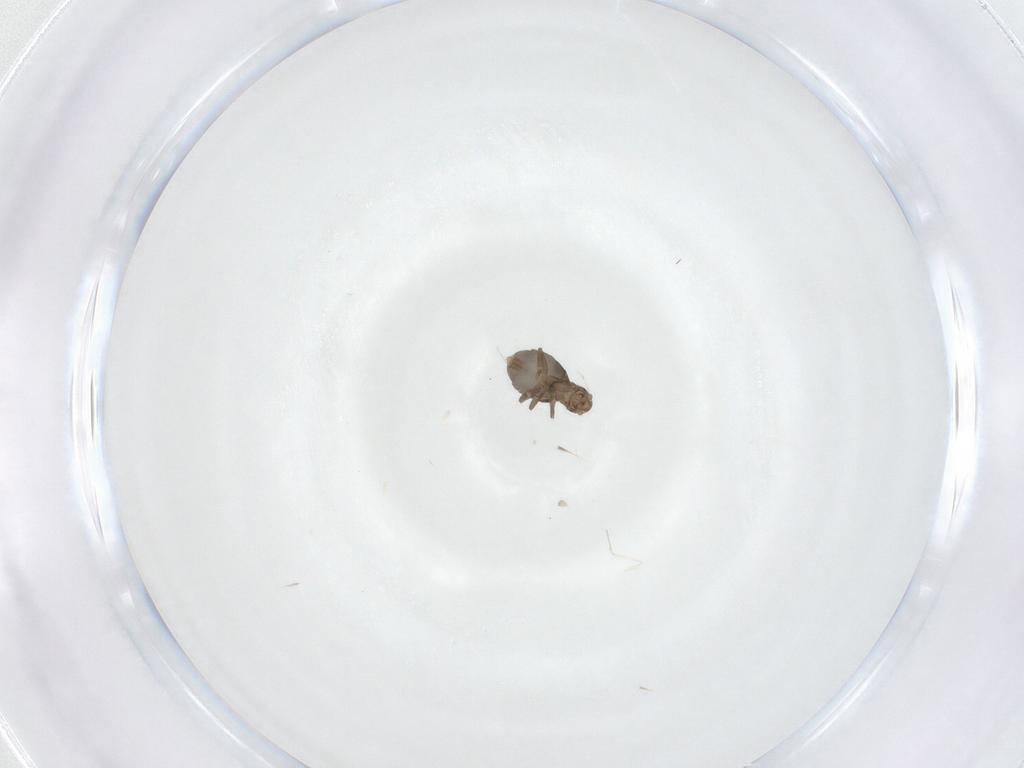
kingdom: Animalia
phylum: Arthropoda
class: Insecta
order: Diptera
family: Phoridae
